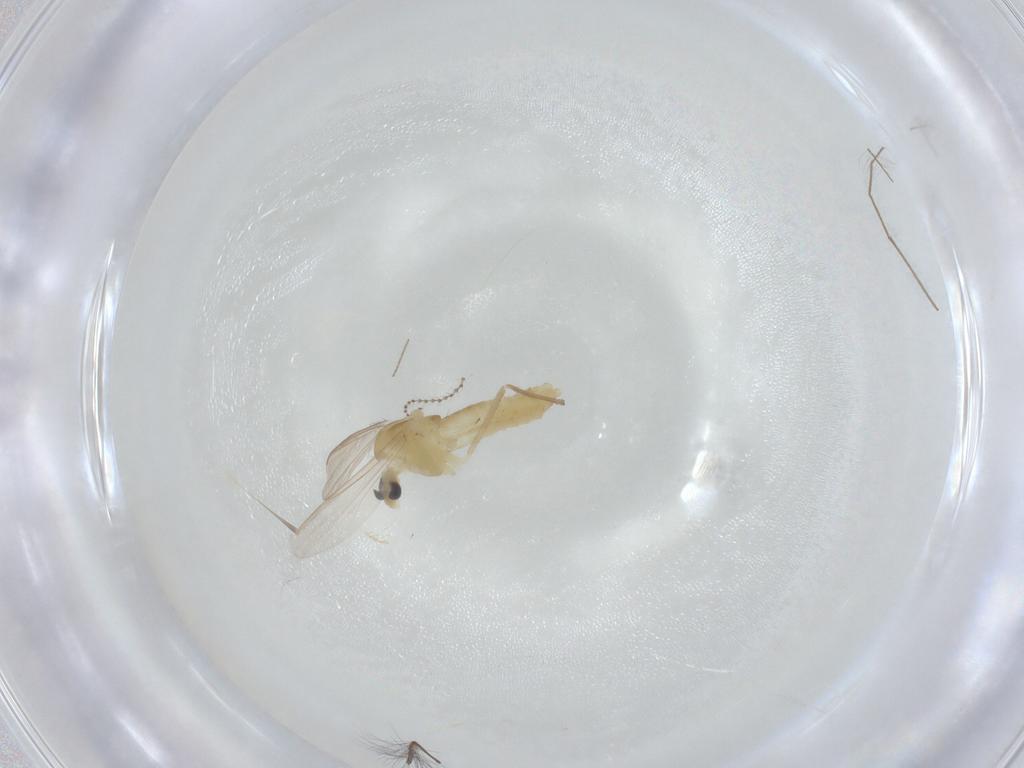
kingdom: Animalia
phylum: Arthropoda
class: Insecta
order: Diptera
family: Chironomidae
